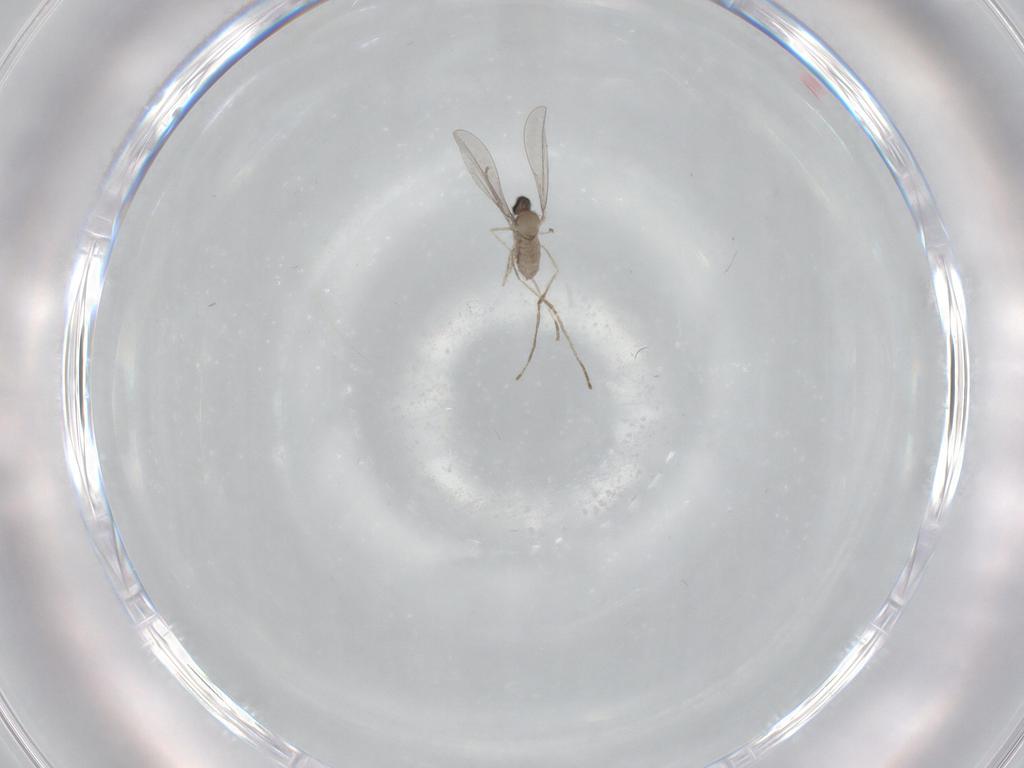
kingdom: Animalia
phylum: Arthropoda
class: Insecta
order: Diptera
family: Cecidomyiidae
